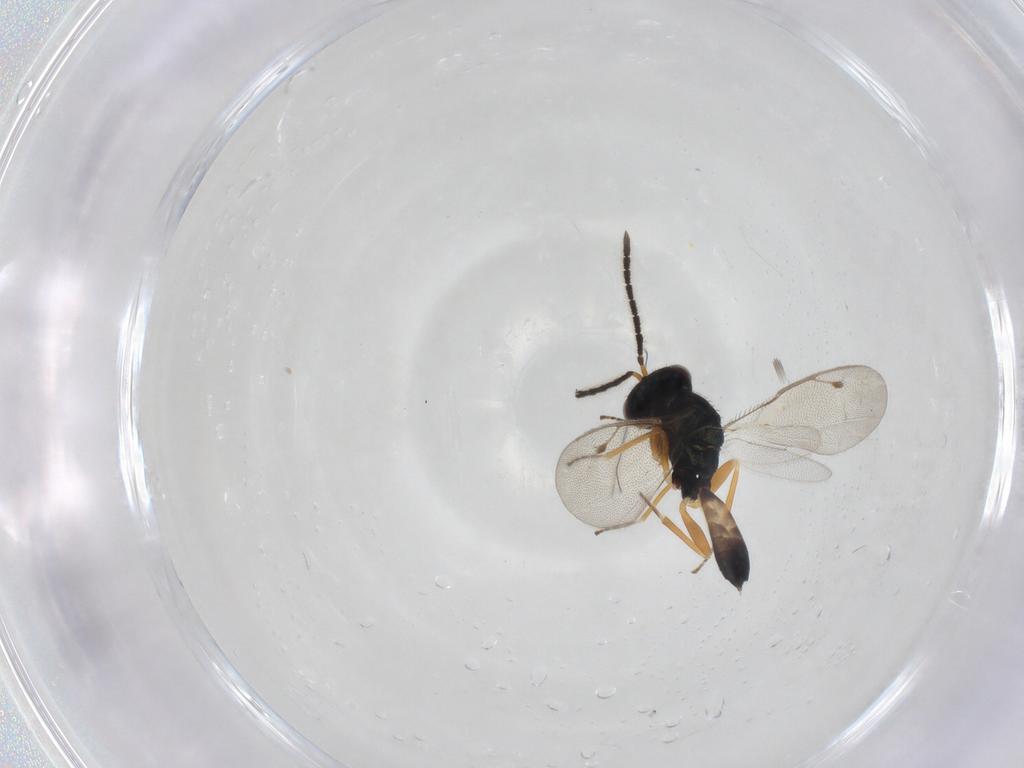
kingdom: Animalia
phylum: Arthropoda
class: Insecta
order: Hymenoptera
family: Pteromalidae
